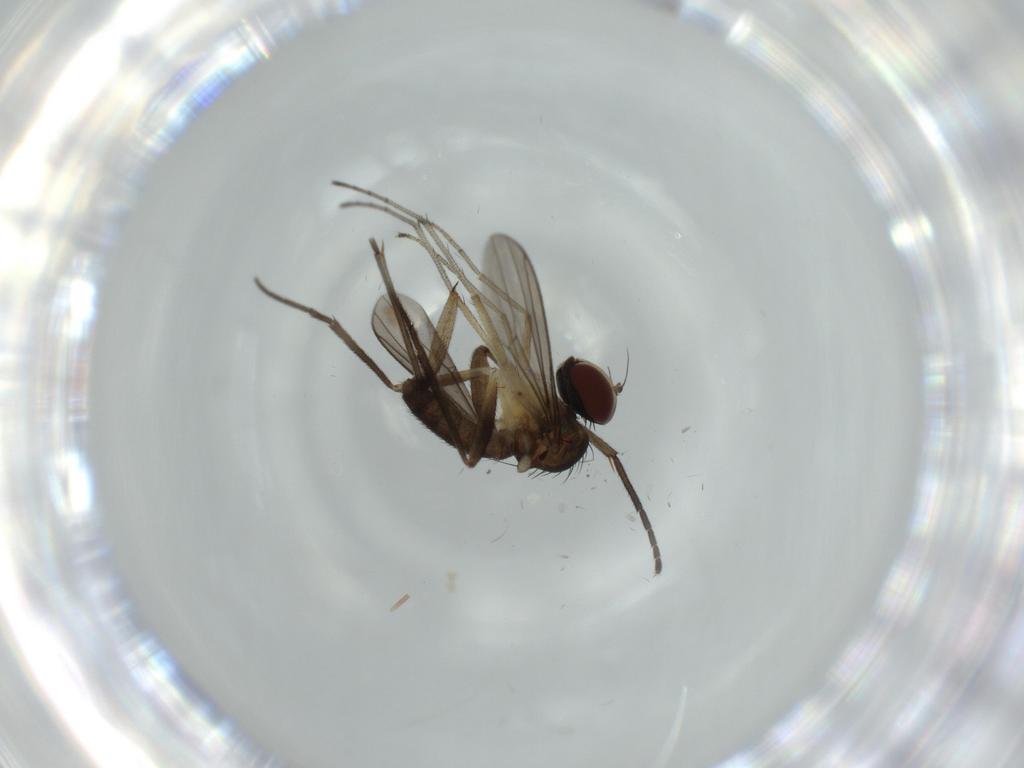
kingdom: Animalia
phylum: Arthropoda
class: Insecta
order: Diptera
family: Dolichopodidae
